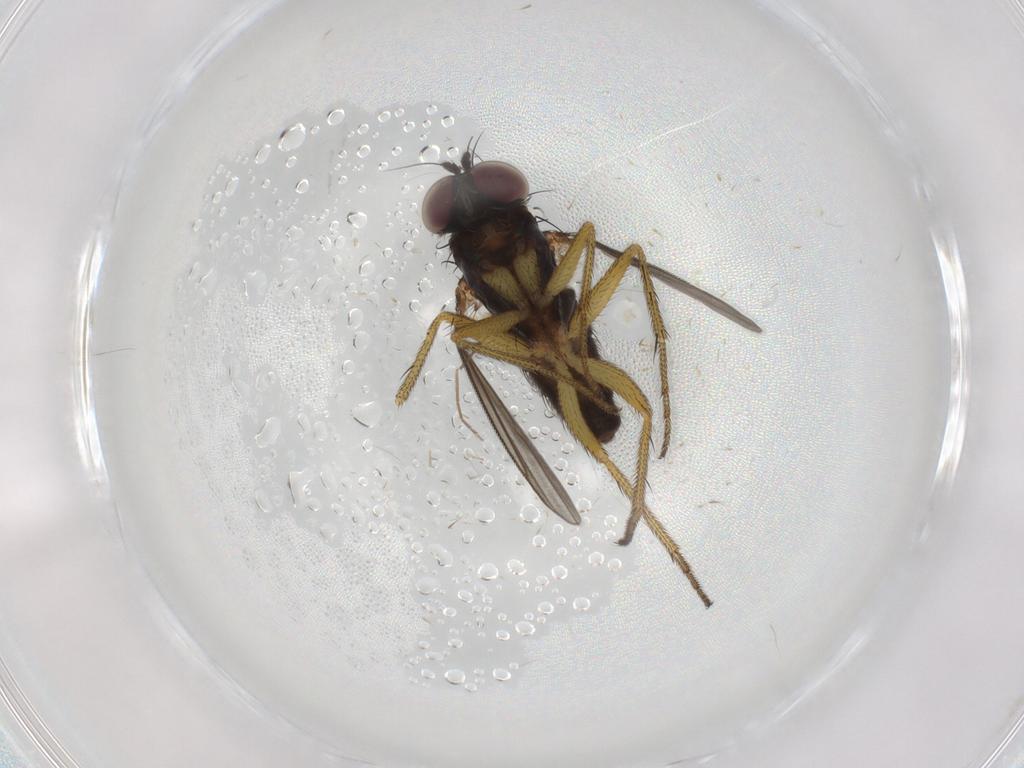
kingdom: Animalia
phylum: Arthropoda
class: Insecta
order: Diptera
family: Chironomidae
